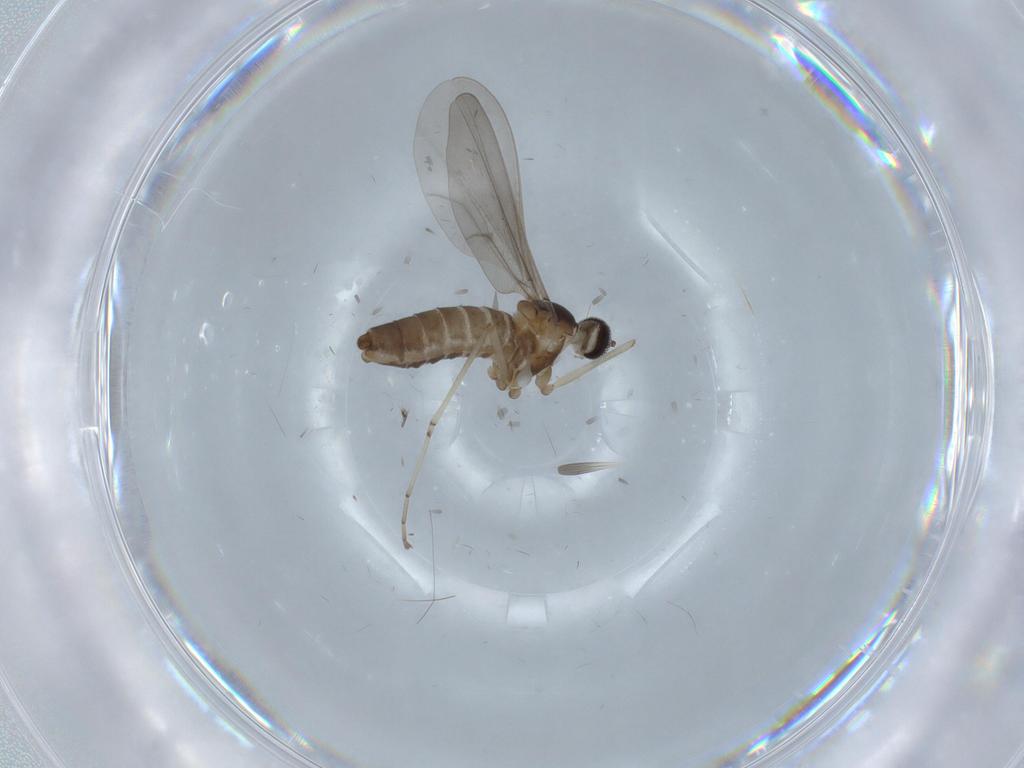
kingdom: Animalia
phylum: Arthropoda
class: Insecta
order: Diptera
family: Cecidomyiidae
